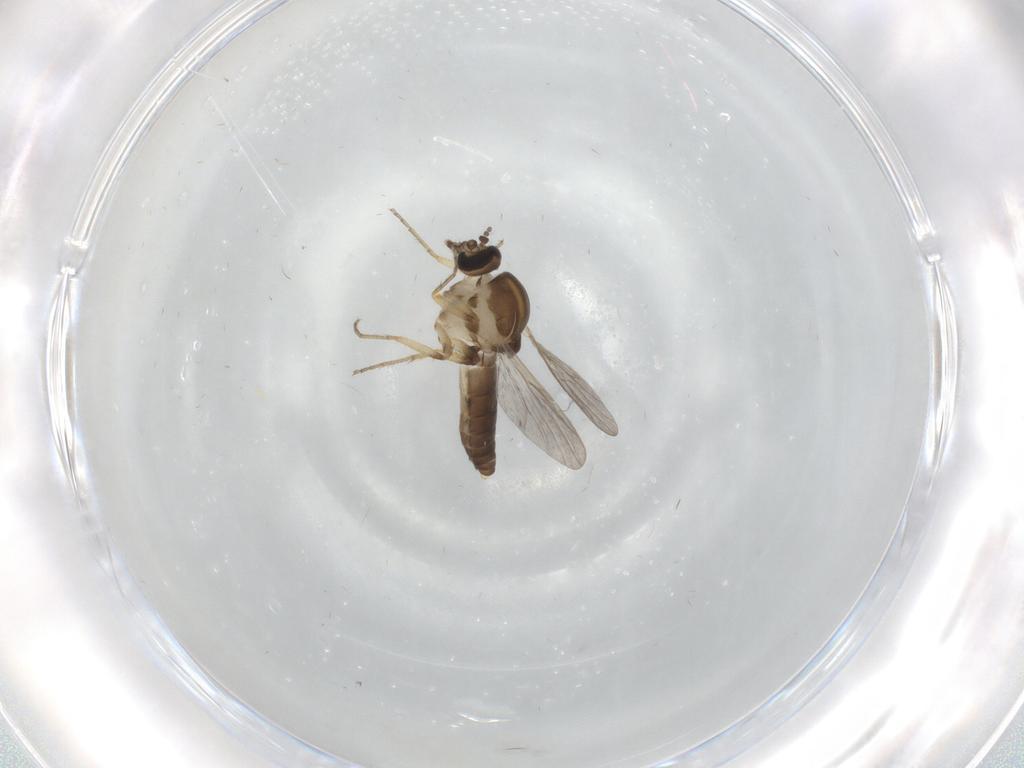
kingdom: Animalia
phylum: Arthropoda
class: Insecta
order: Diptera
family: Ceratopogonidae
